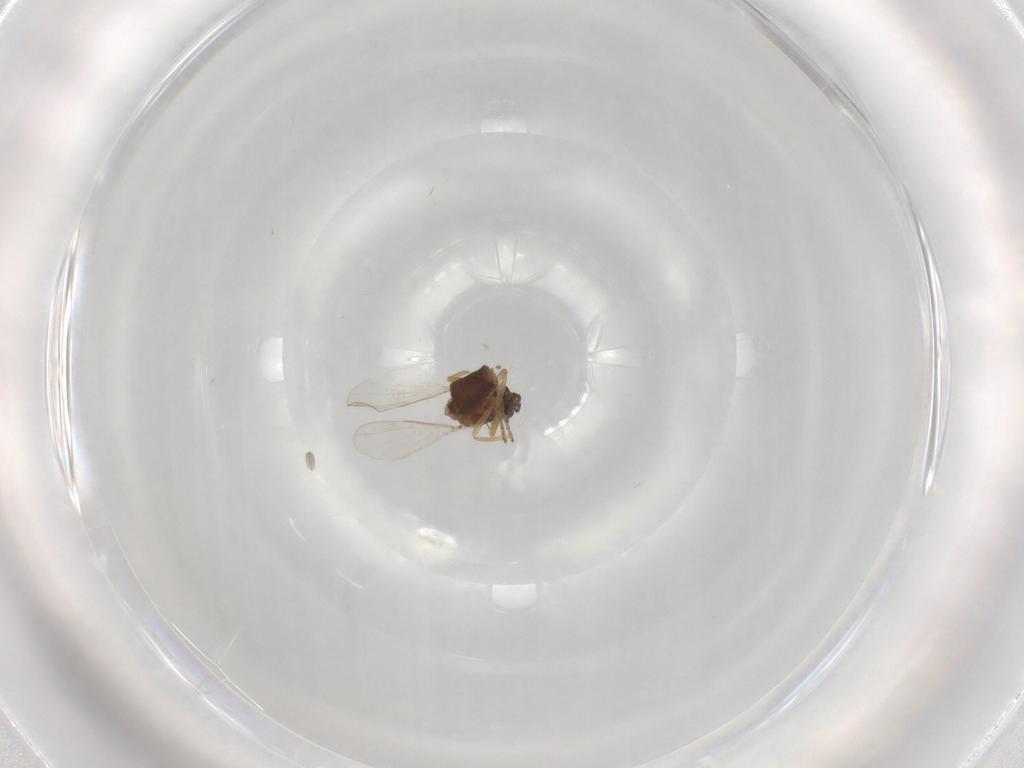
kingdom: Animalia
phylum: Arthropoda
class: Insecta
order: Diptera
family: Ceratopogonidae
